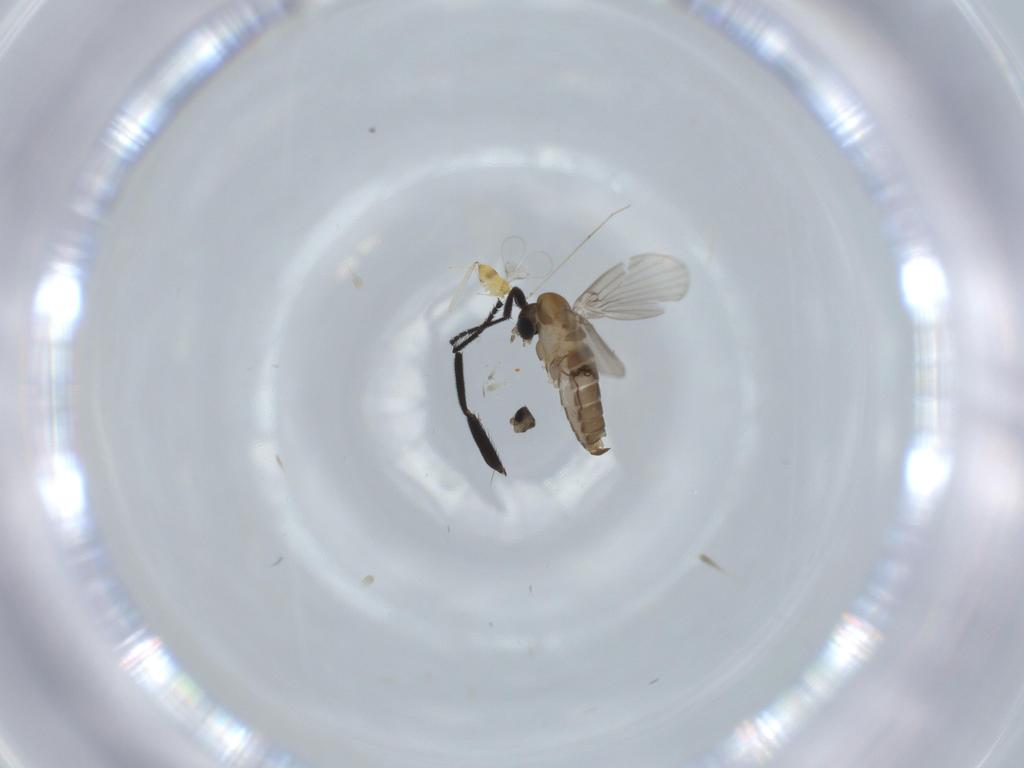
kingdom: Animalia
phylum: Arthropoda
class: Insecta
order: Diptera
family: Phoridae
